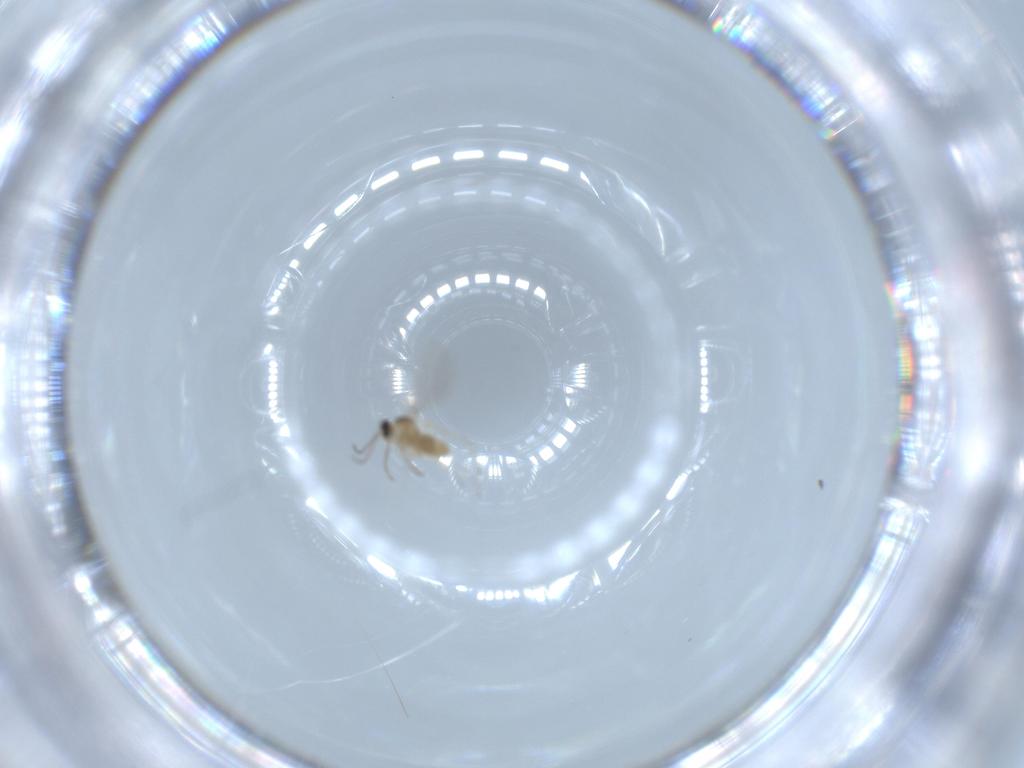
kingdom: Animalia
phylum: Arthropoda
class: Insecta
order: Diptera
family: Cecidomyiidae
